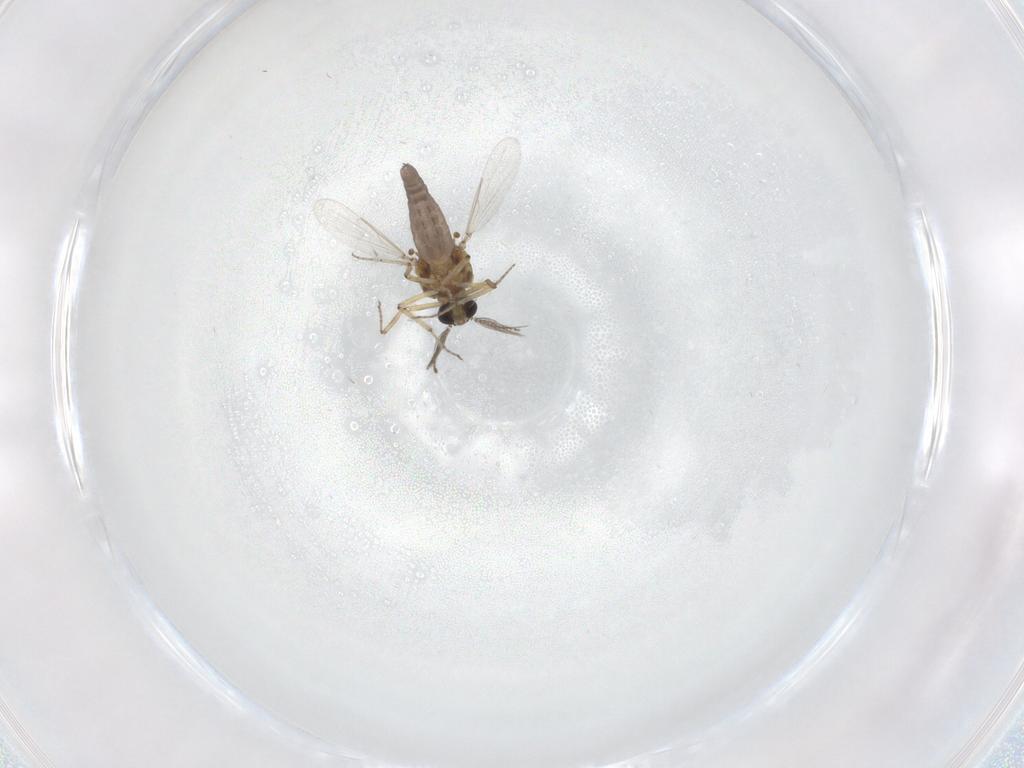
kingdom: Animalia
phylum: Arthropoda
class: Insecta
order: Diptera
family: Ceratopogonidae
